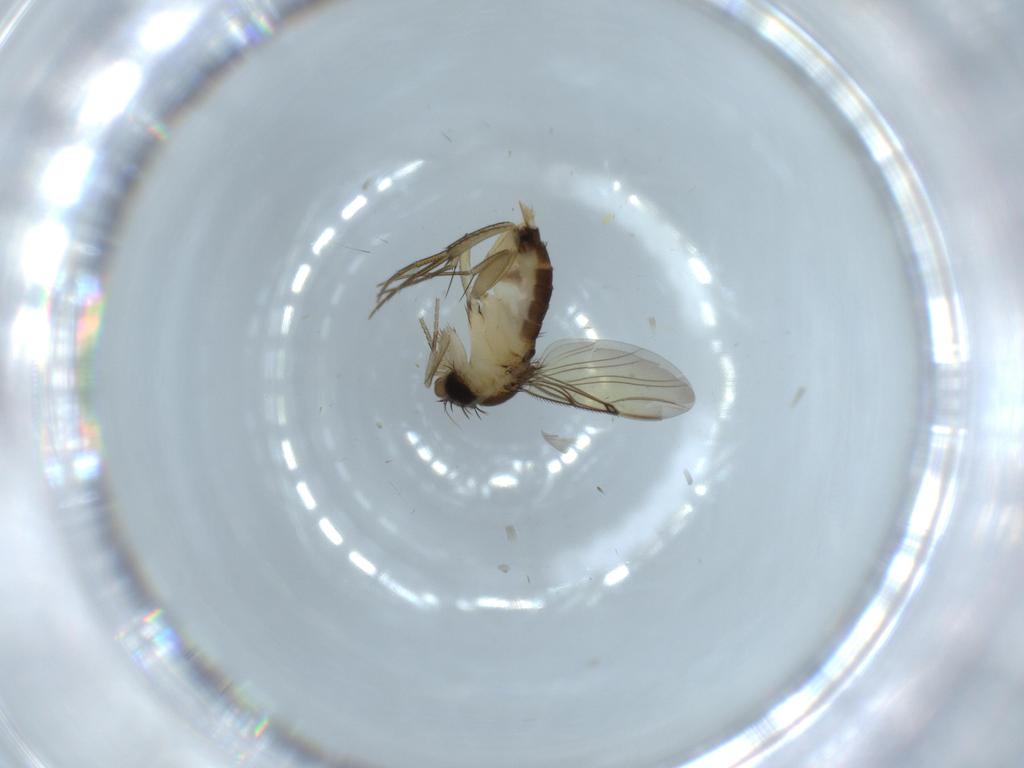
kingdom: Animalia
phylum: Arthropoda
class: Insecta
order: Diptera
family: Phoridae
